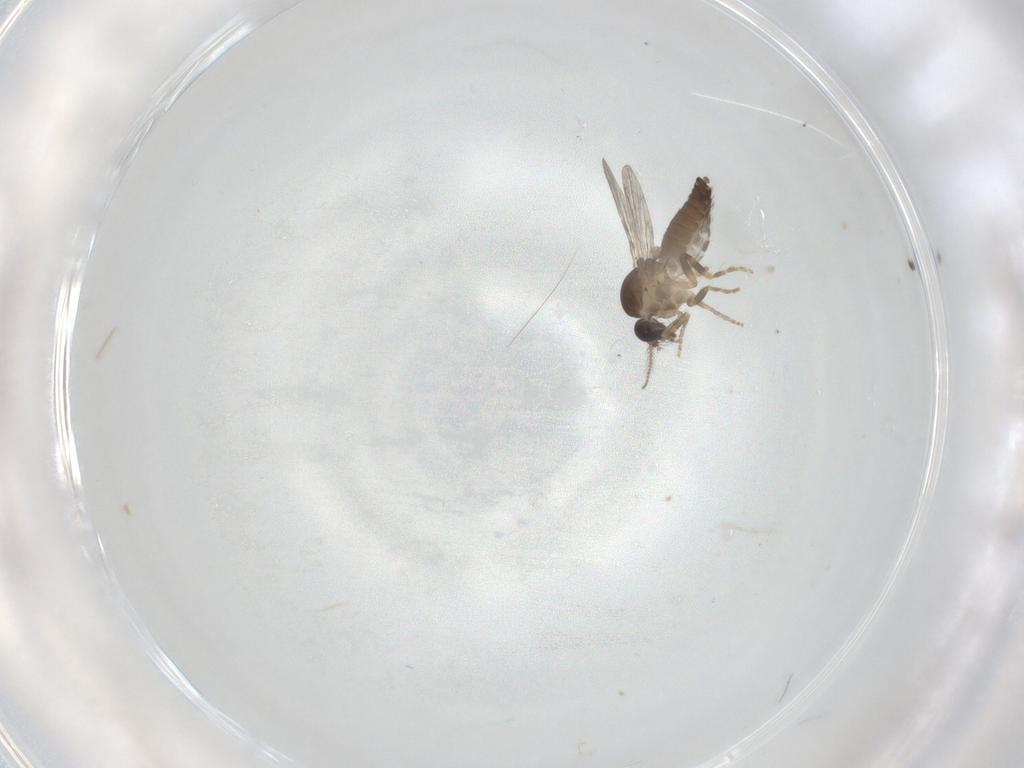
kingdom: Animalia
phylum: Arthropoda
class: Insecta
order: Diptera
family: Ceratopogonidae
